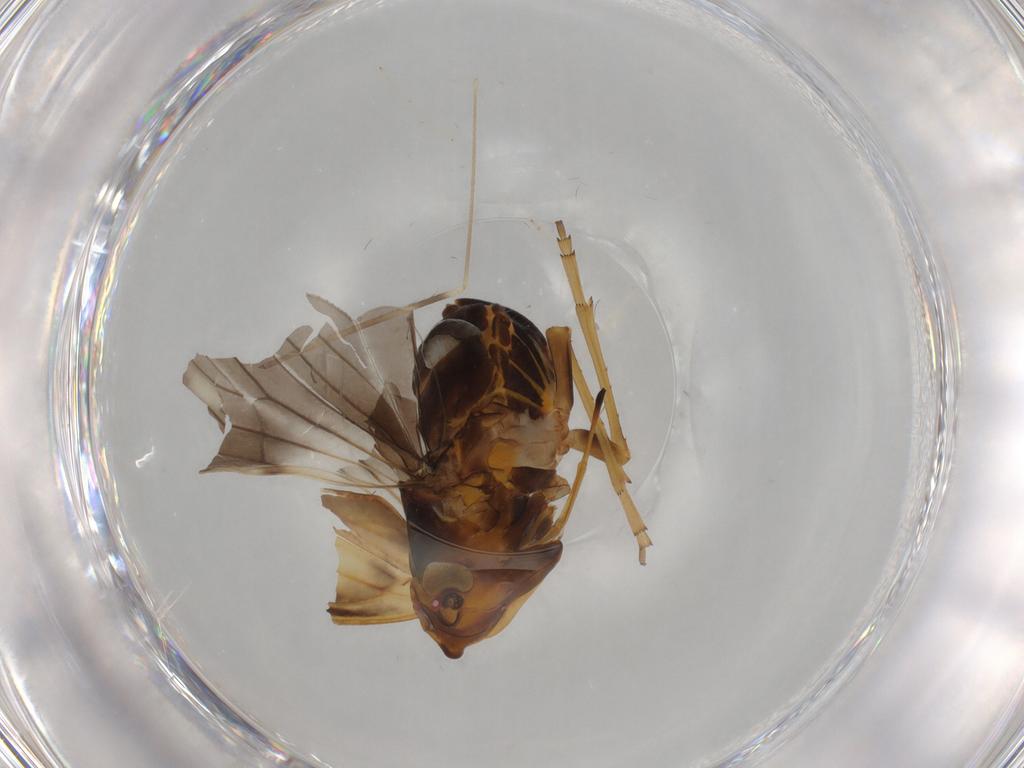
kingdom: Animalia
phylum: Arthropoda
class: Insecta
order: Hemiptera
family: Cixiidae
